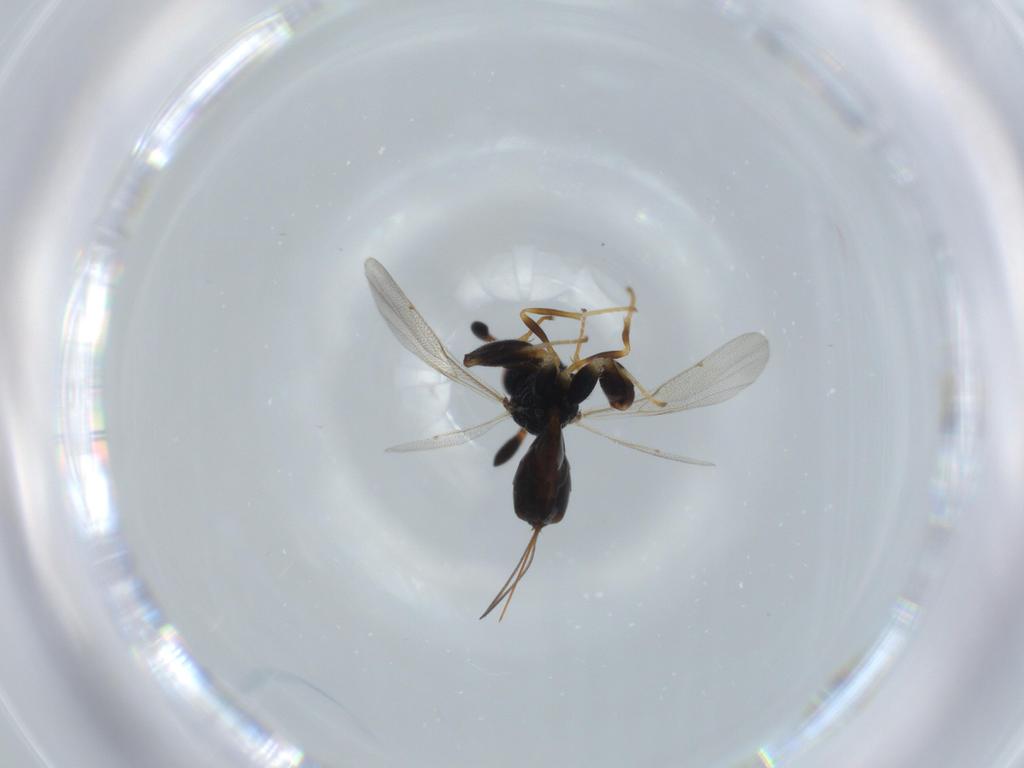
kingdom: Animalia
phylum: Arthropoda
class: Insecta
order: Hymenoptera
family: Torymidae
